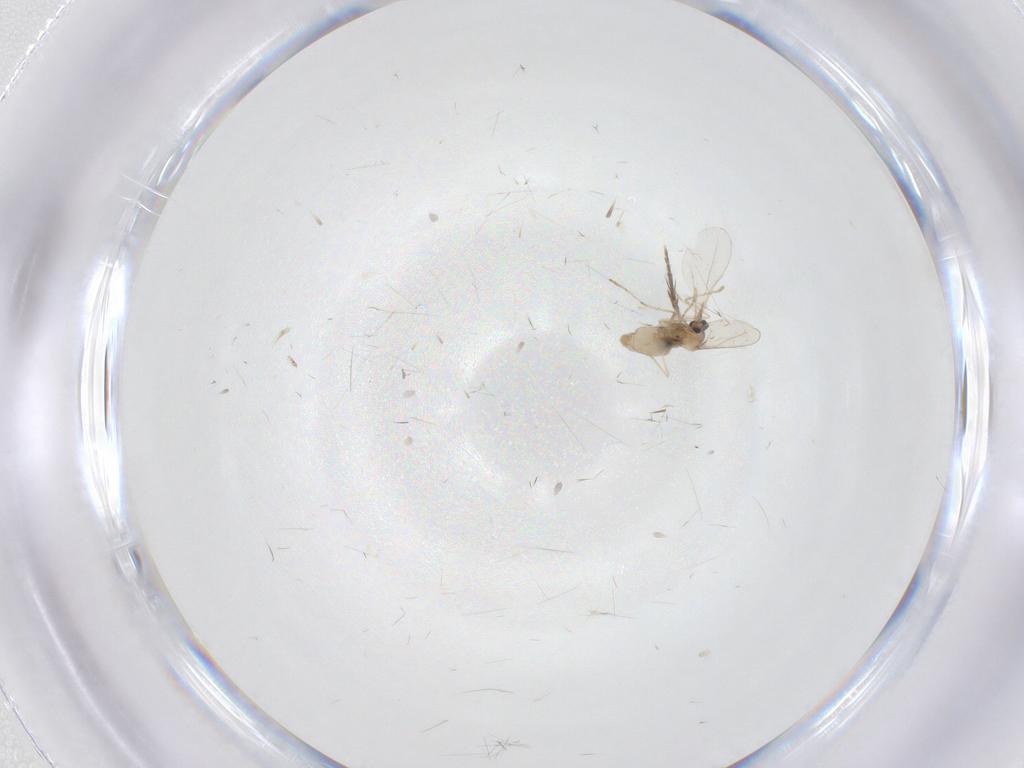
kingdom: Animalia
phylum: Arthropoda
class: Insecta
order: Diptera
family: Cecidomyiidae
